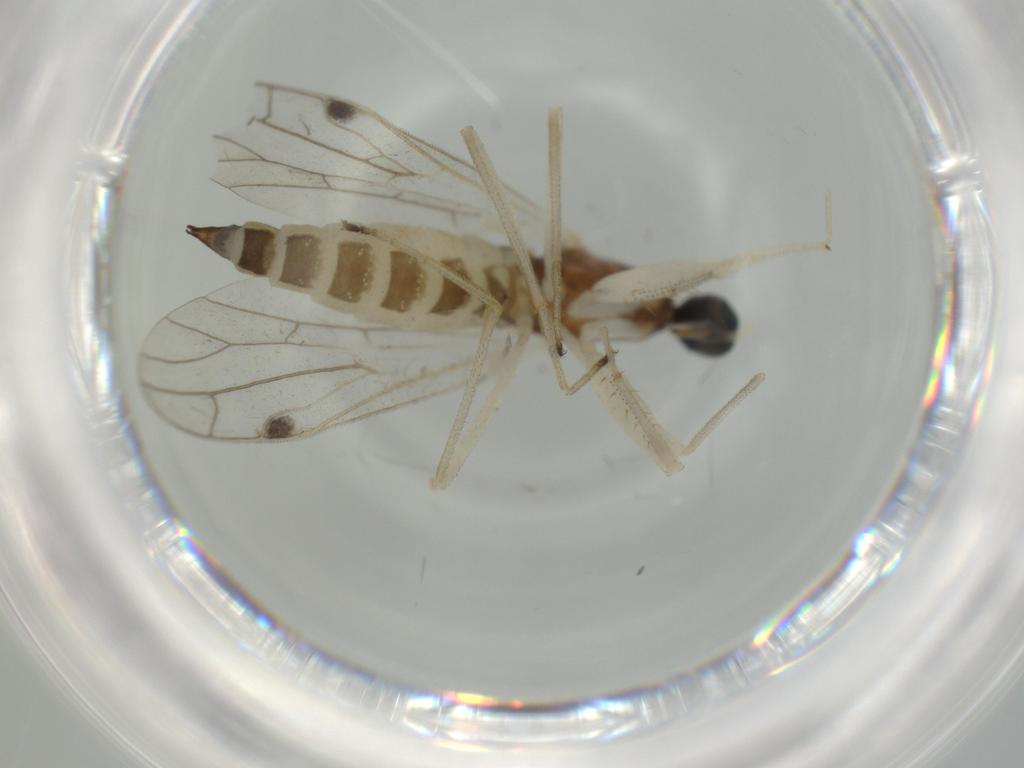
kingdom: Animalia
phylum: Arthropoda
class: Insecta
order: Diptera
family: Empididae
